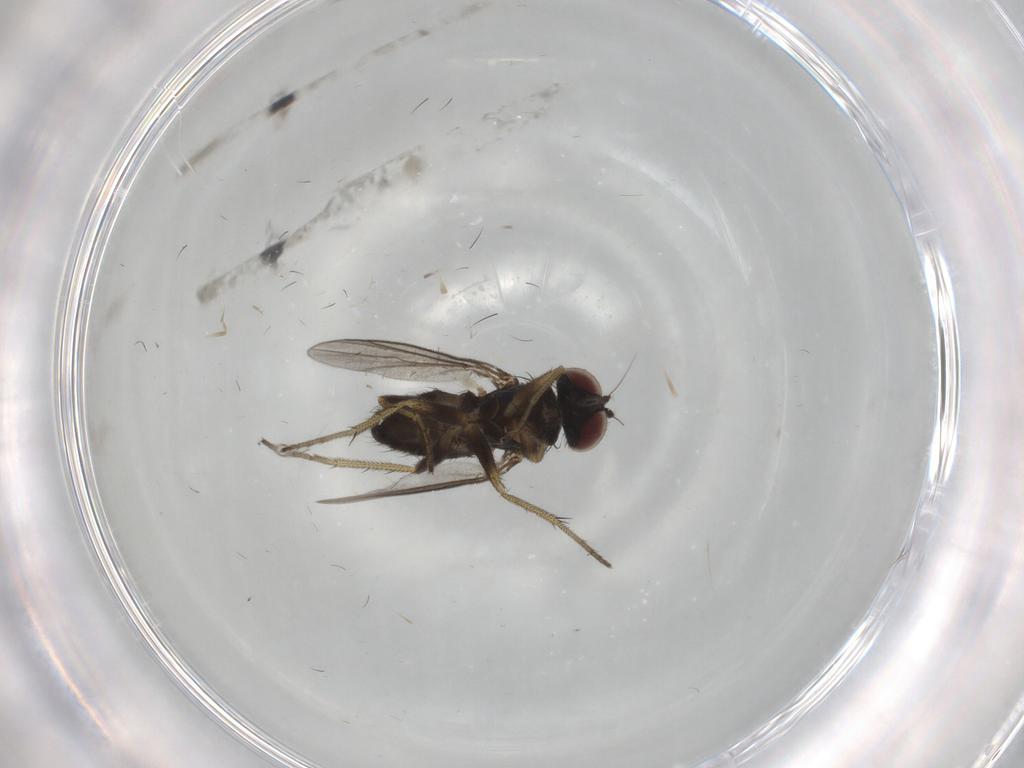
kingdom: Animalia
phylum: Arthropoda
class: Insecta
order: Diptera
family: Dolichopodidae
